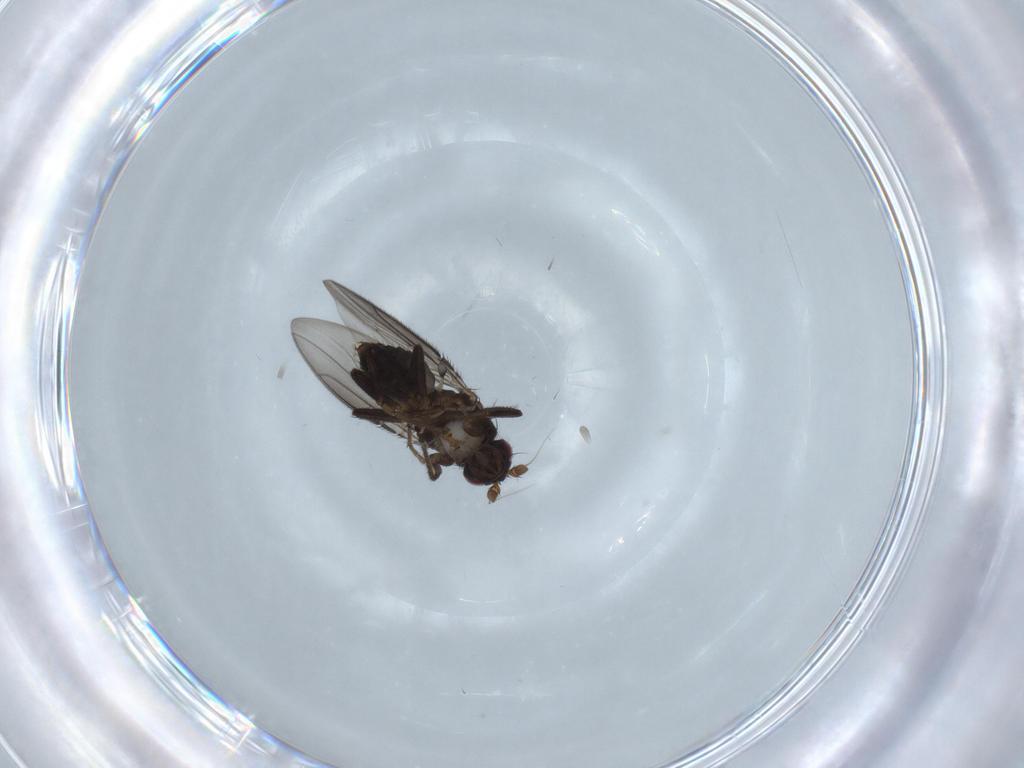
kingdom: Animalia
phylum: Arthropoda
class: Insecta
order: Diptera
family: Sphaeroceridae
